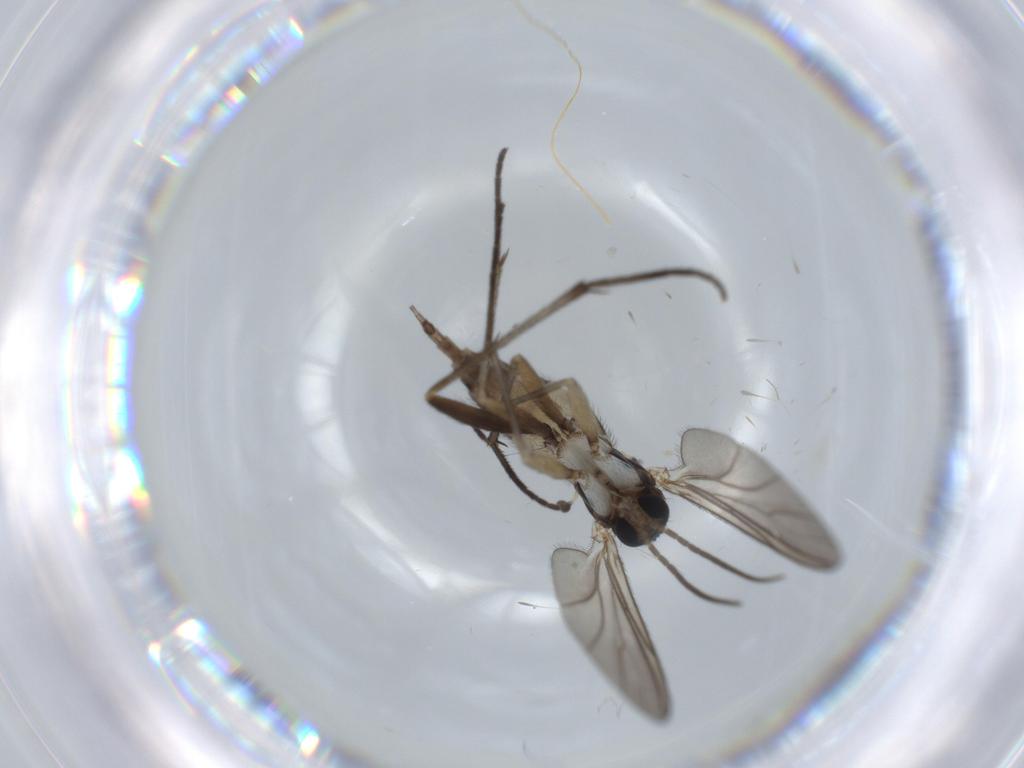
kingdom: Animalia
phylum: Arthropoda
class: Insecta
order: Diptera
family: Sciaridae
